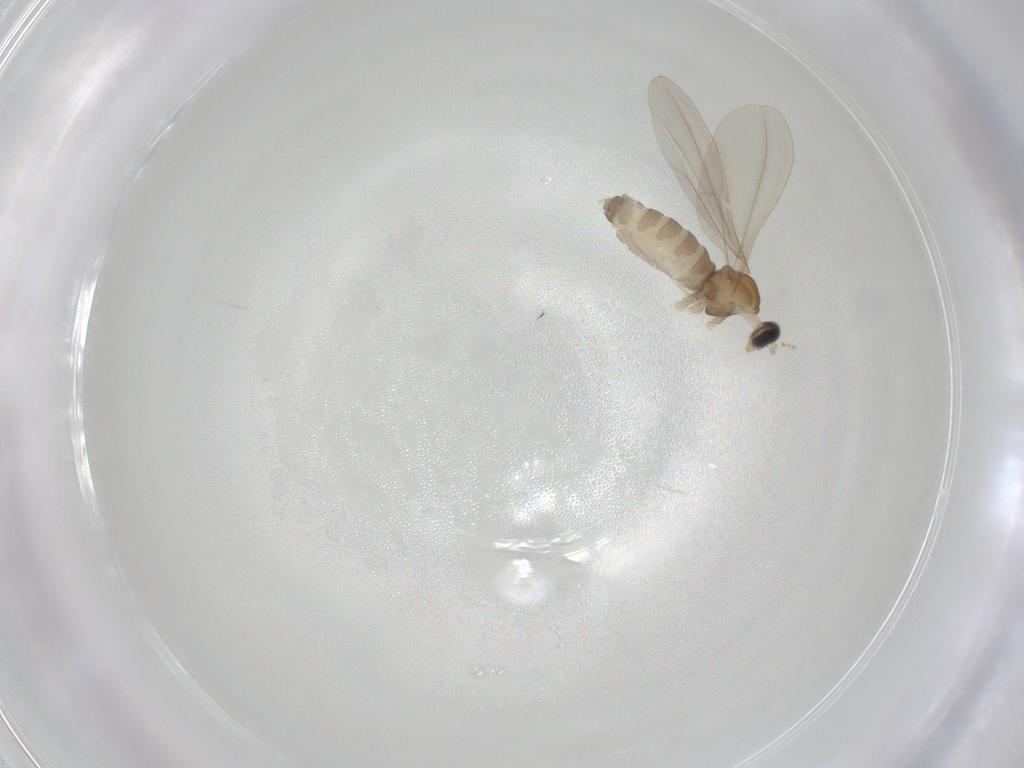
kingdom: Animalia
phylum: Arthropoda
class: Insecta
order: Diptera
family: Cecidomyiidae
